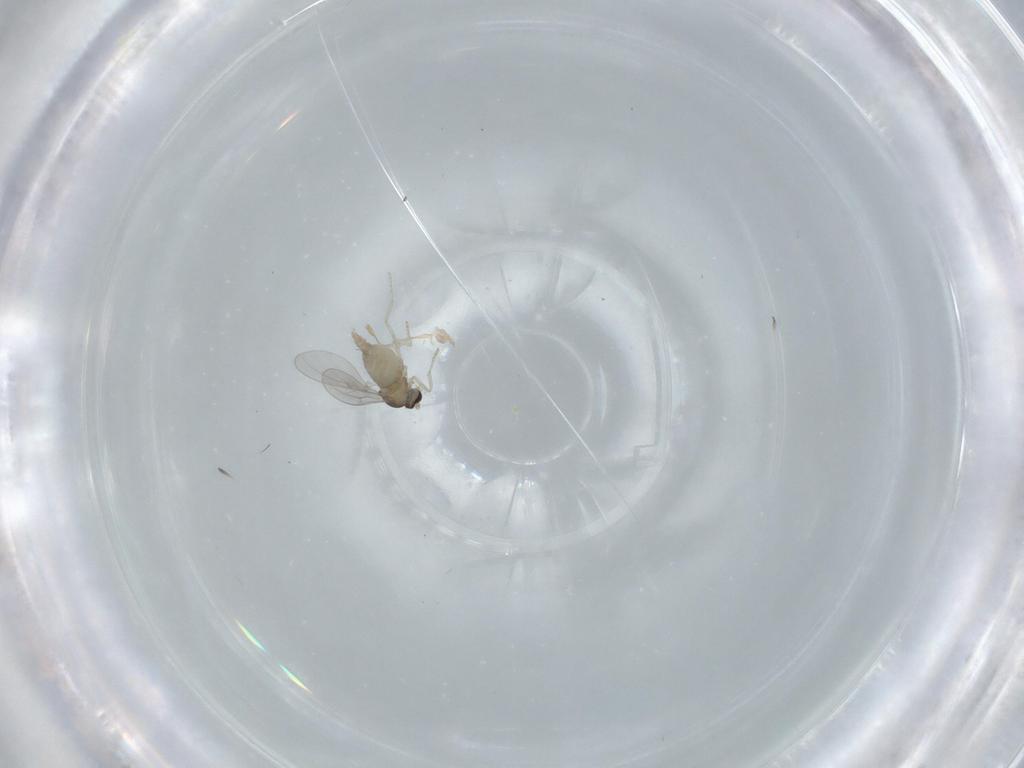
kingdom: Animalia
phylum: Arthropoda
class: Insecta
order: Diptera
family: Cecidomyiidae
